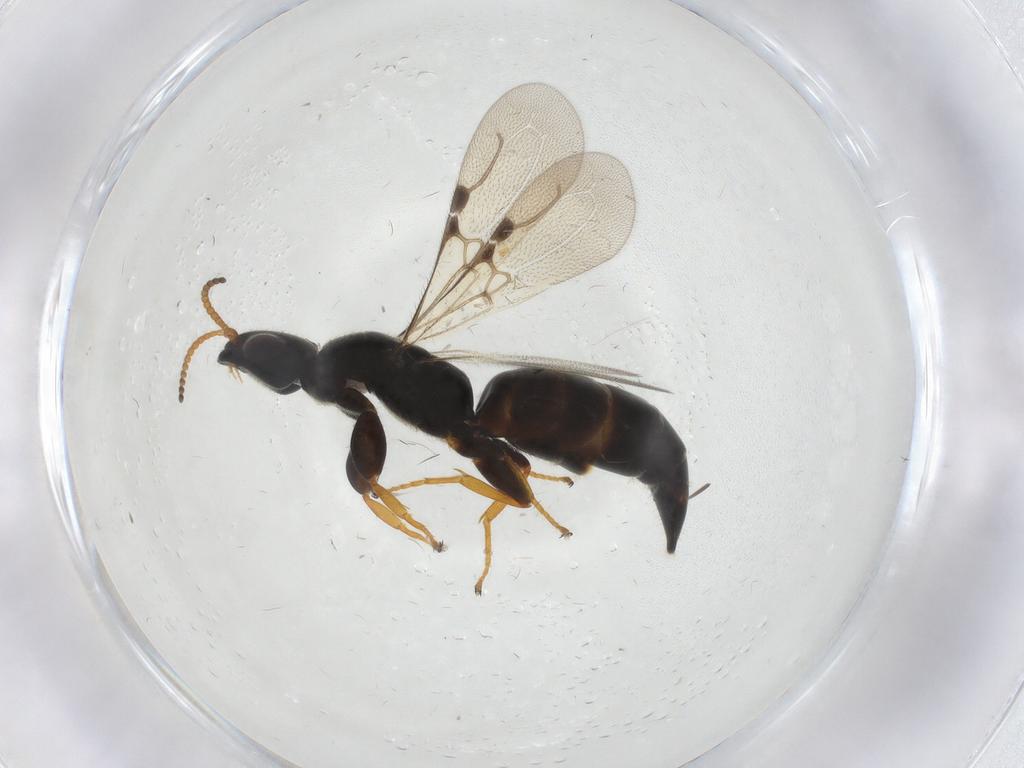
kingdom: Animalia
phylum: Arthropoda
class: Insecta
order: Hymenoptera
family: Bethylidae
